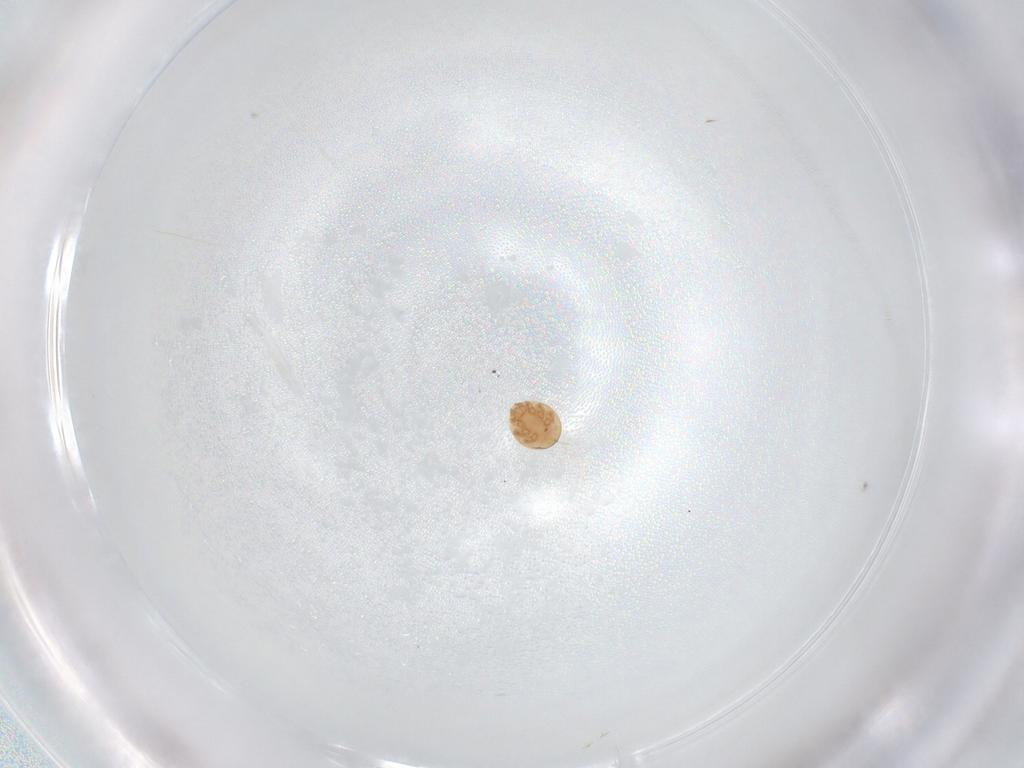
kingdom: Animalia
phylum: Arthropoda
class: Arachnida
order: Mesostigmata
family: Trematuridae
